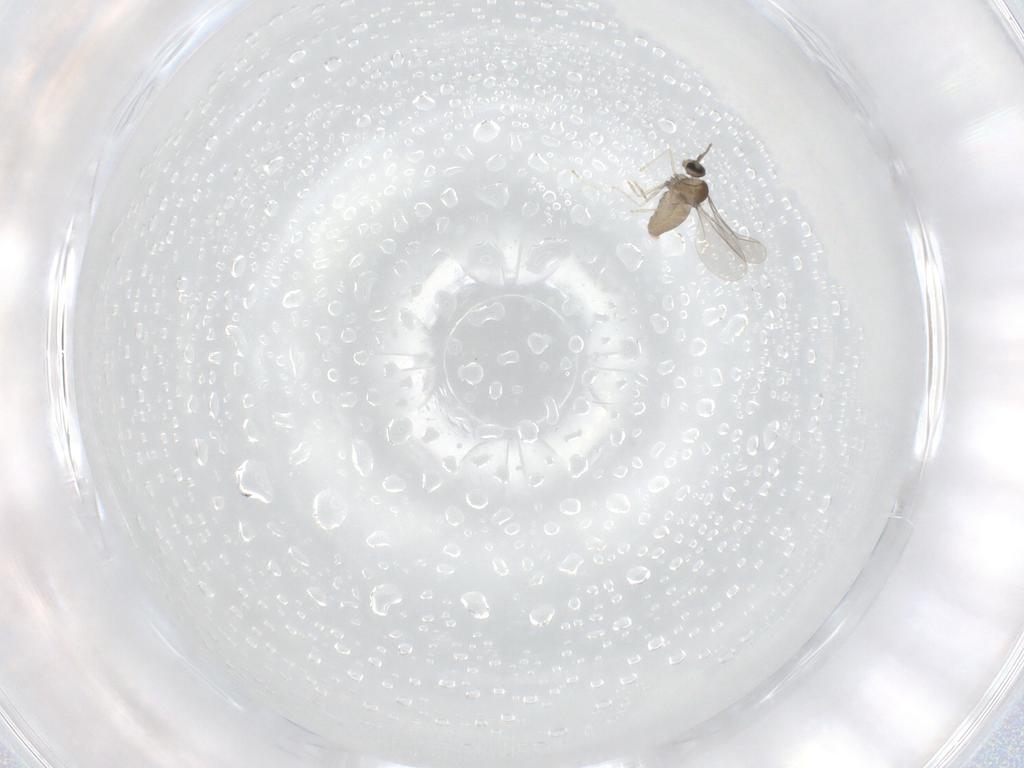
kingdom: Animalia
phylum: Arthropoda
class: Insecta
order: Diptera
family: Cecidomyiidae
